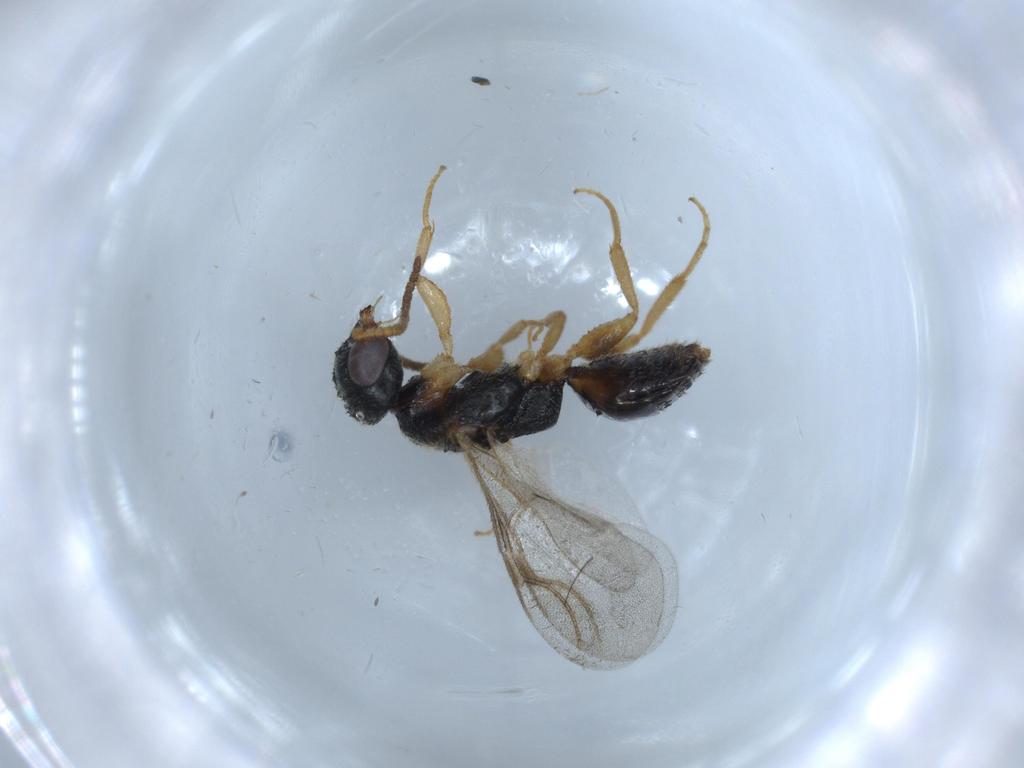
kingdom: Animalia
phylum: Arthropoda
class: Insecta
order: Hymenoptera
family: Bethylidae
